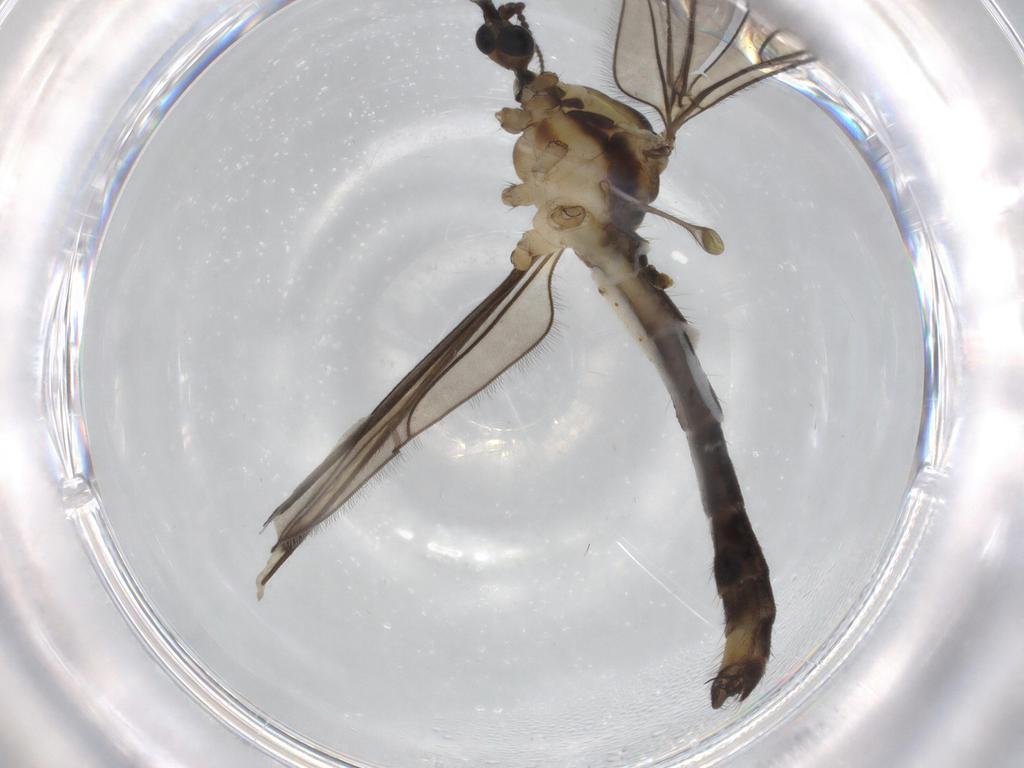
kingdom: Animalia
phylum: Arthropoda
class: Insecta
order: Diptera
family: Limoniidae
